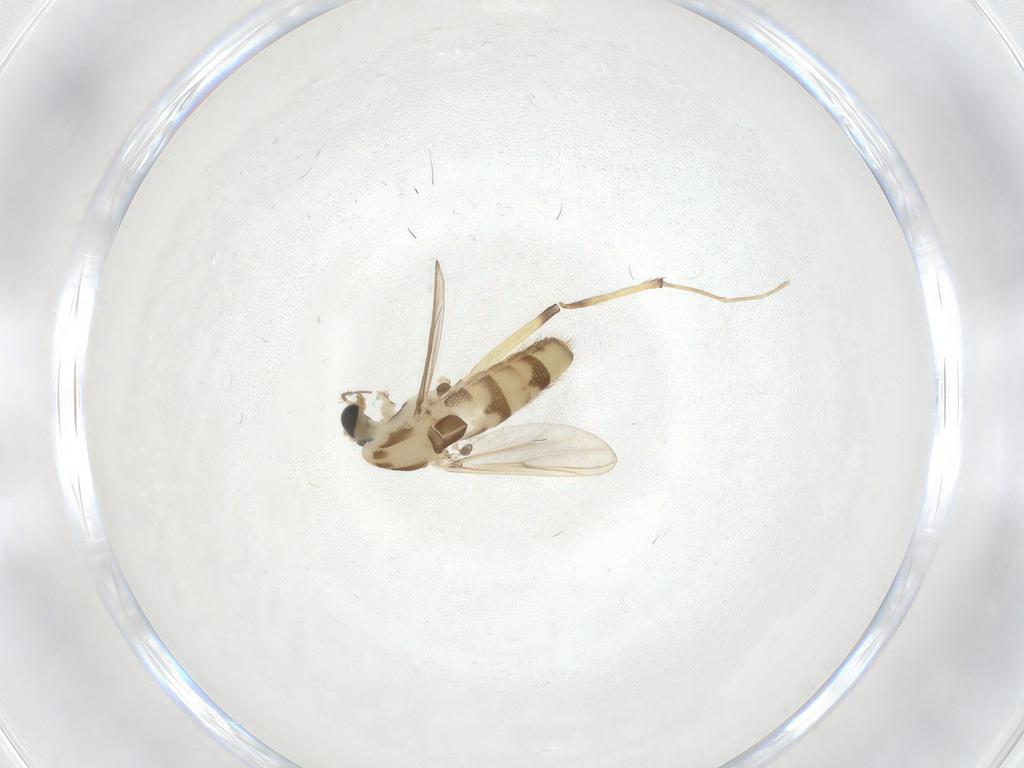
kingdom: Animalia
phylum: Arthropoda
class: Insecta
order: Diptera
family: Chironomidae
